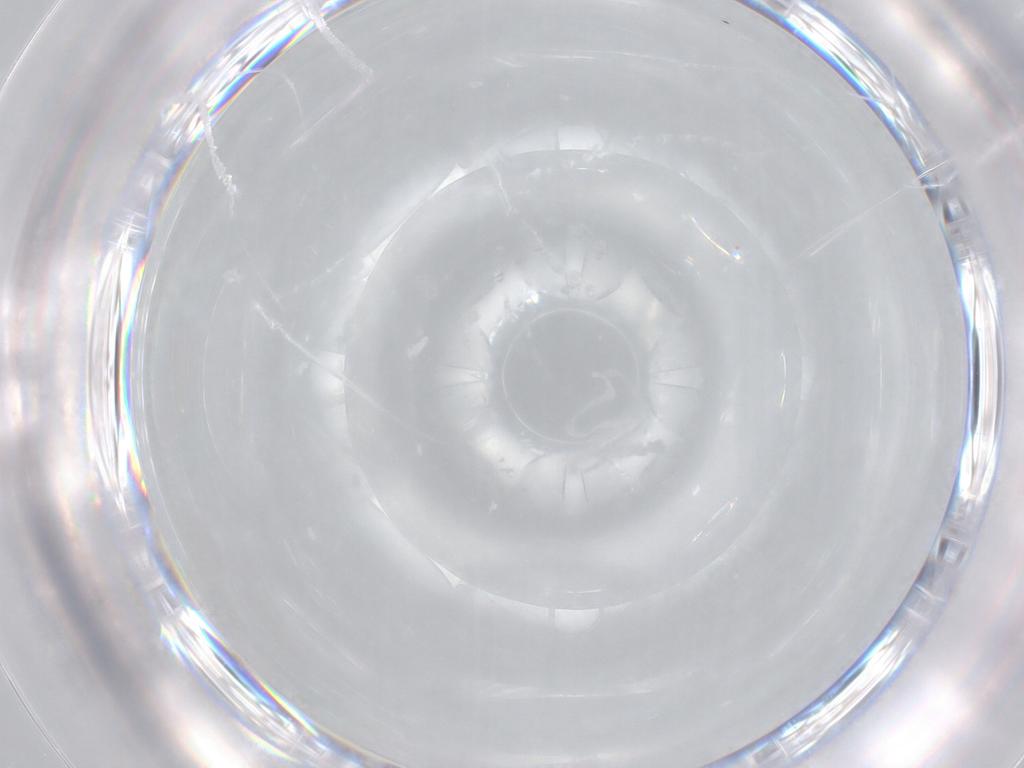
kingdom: Animalia
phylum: Arthropoda
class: Insecta
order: Diptera
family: Chironomidae
